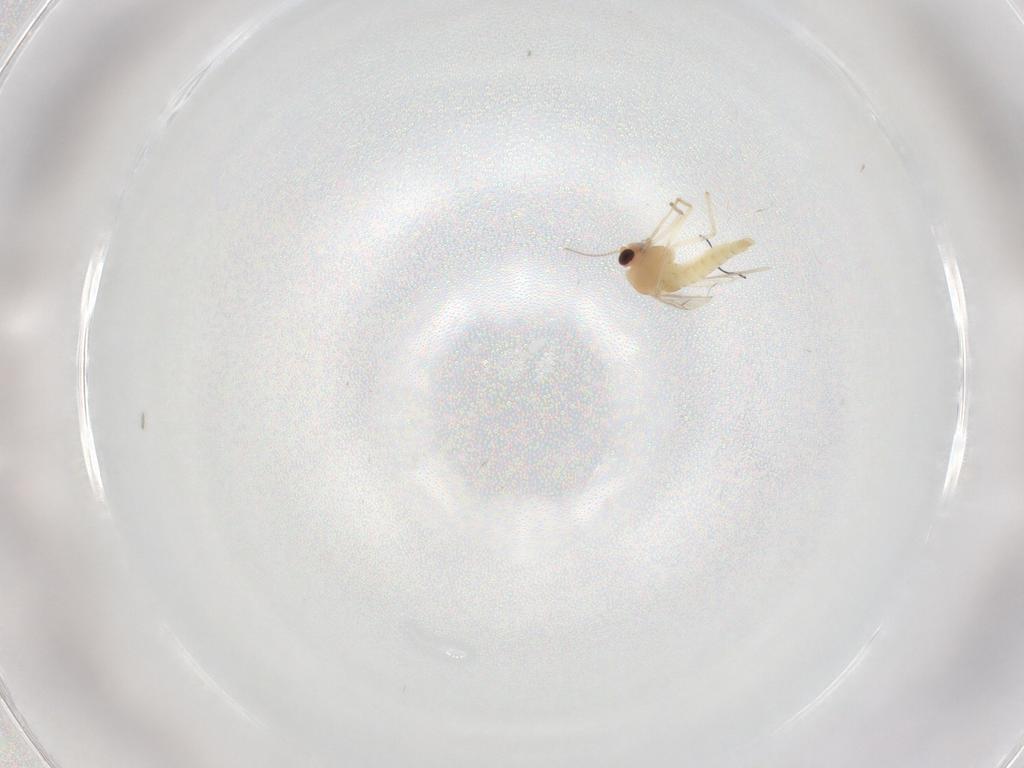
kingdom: Animalia
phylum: Arthropoda
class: Insecta
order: Diptera
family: Chironomidae
